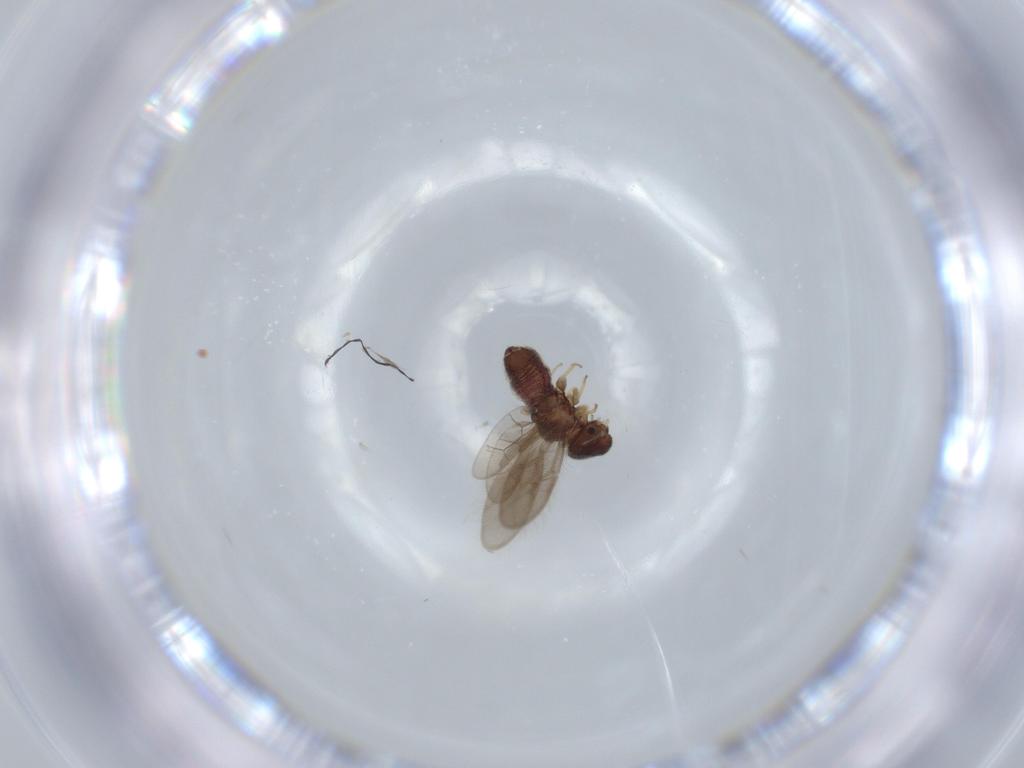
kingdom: Animalia
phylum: Arthropoda
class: Insecta
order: Psocodea
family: Archipsocidae
